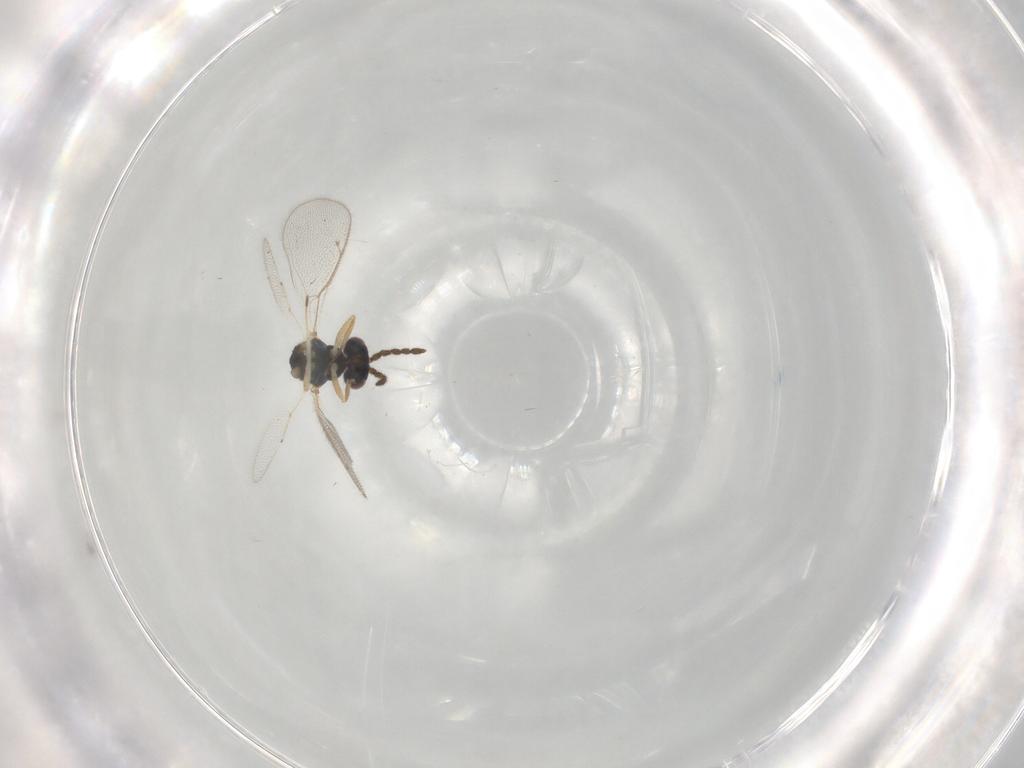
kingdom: Animalia
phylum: Arthropoda
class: Insecta
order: Hymenoptera
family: Eulophidae
